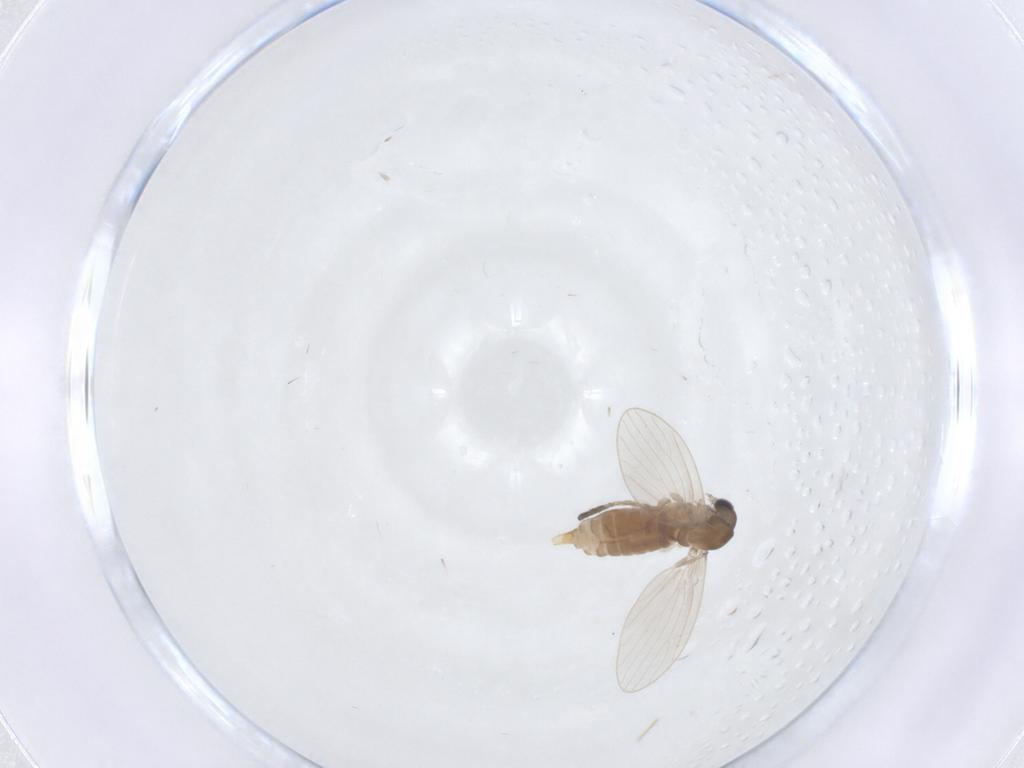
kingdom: Animalia
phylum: Arthropoda
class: Insecta
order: Diptera
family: Psychodidae
